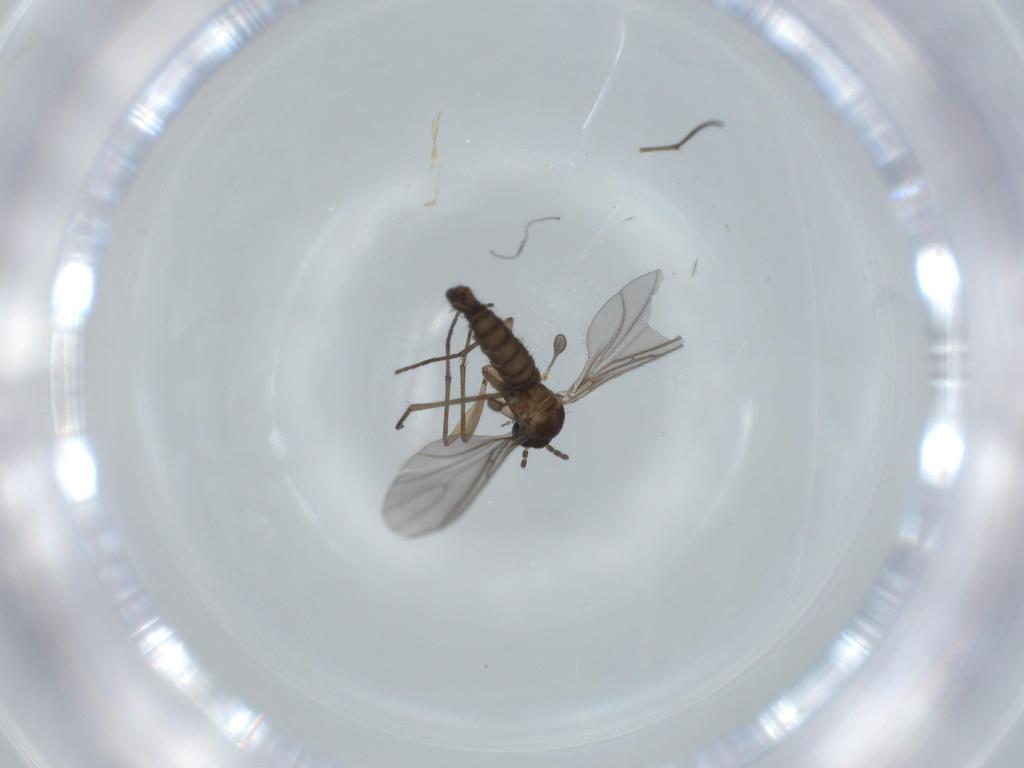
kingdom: Animalia
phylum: Arthropoda
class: Insecta
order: Diptera
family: Sciaridae
